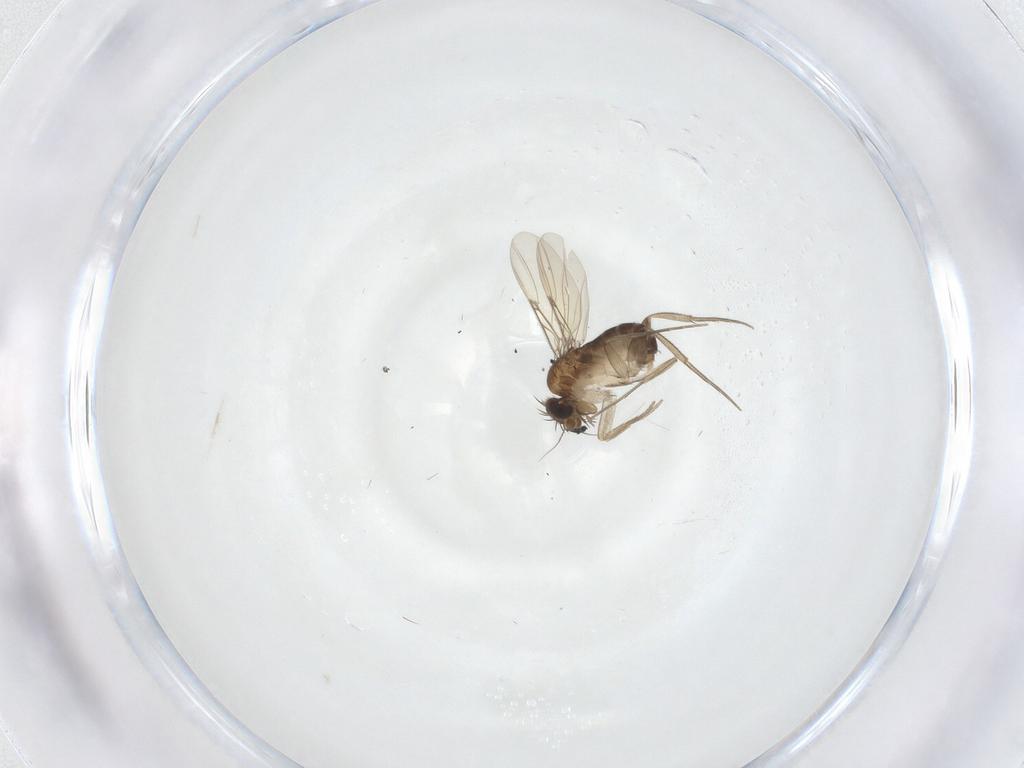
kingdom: Animalia
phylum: Arthropoda
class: Insecta
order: Diptera
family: Phoridae
